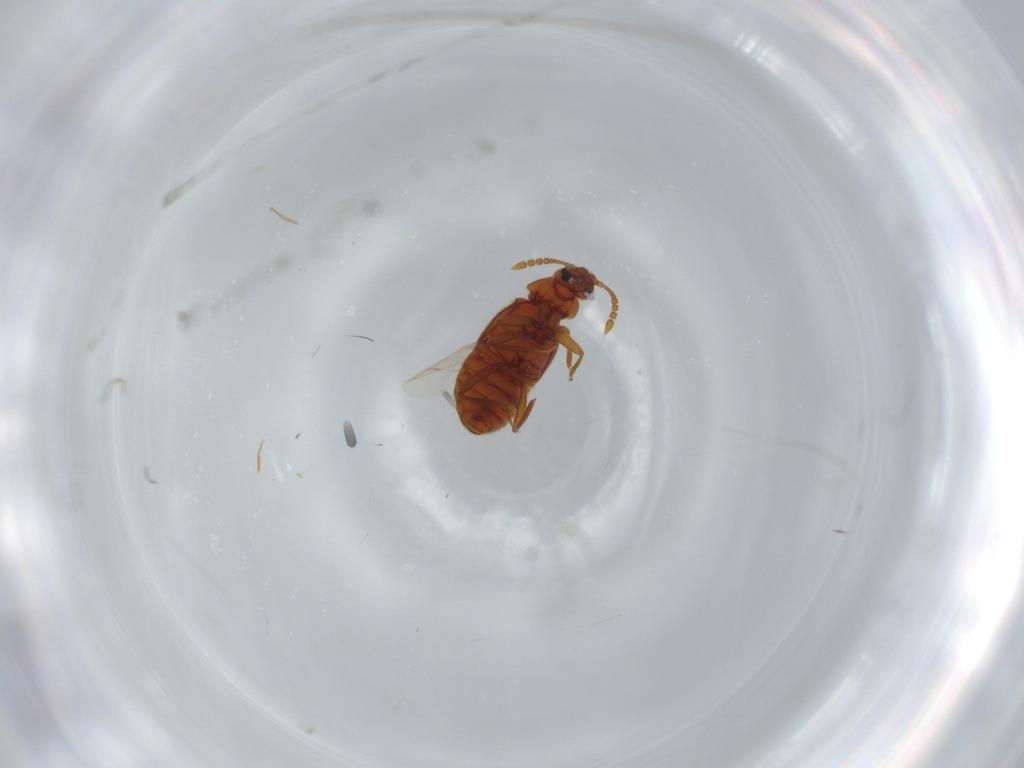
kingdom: Animalia
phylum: Arthropoda
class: Insecta
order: Coleoptera
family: Staphylinidae
